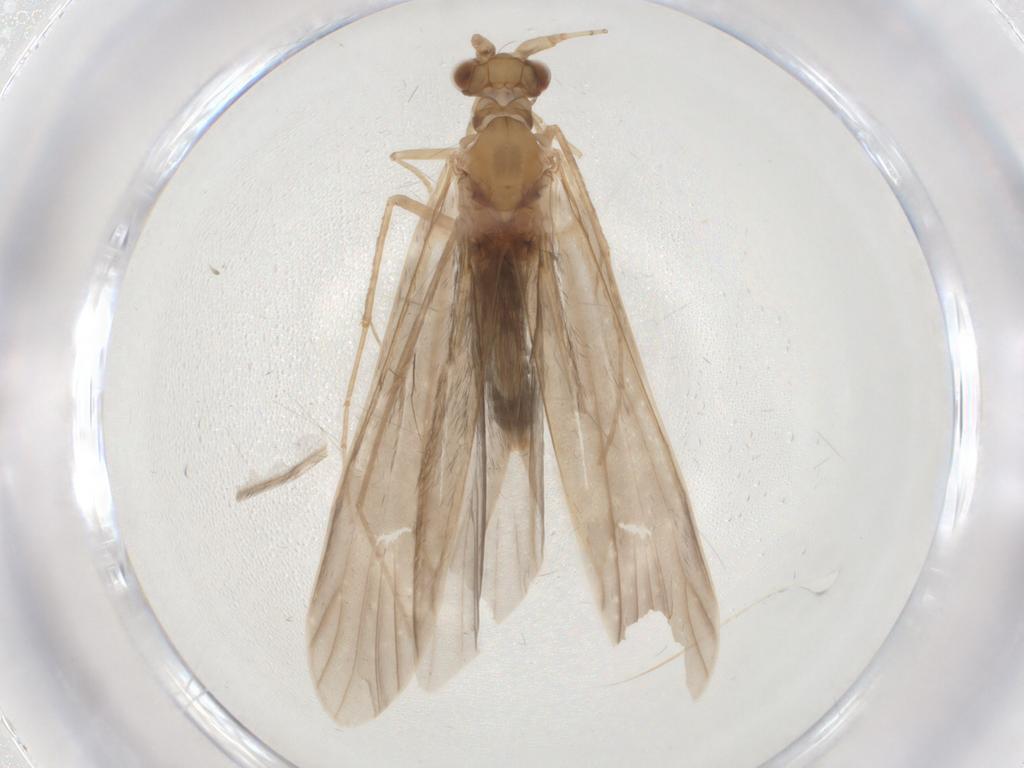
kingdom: Animalia
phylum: Arthropoda
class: Insecta
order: Trichoptera
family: Leptoceridae
